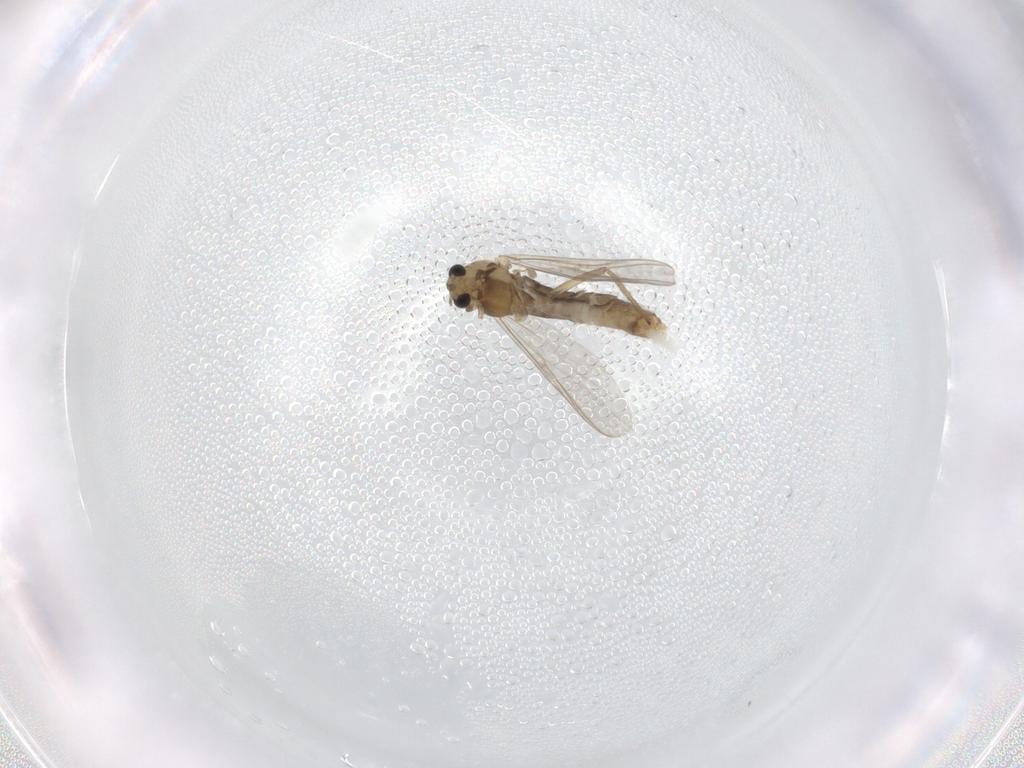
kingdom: Animalia
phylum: Arthropoda
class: Insecta
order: Diptera
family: Chironomidae
